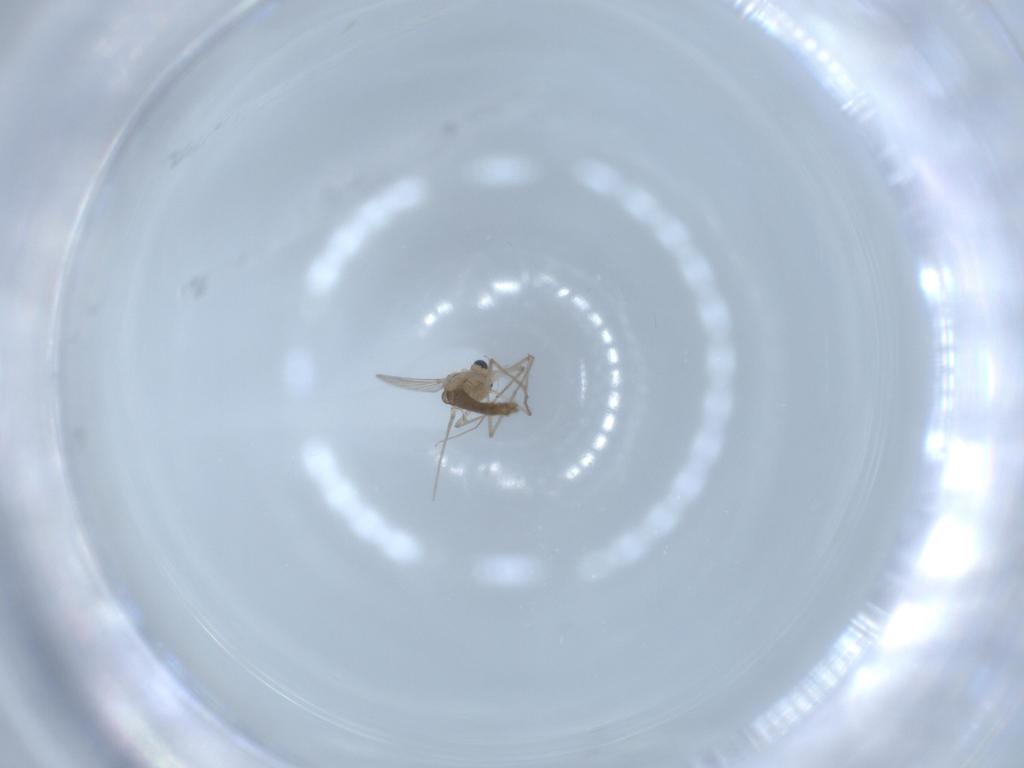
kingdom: Animalia
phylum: Arthropoda
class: Insecta
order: Diptera
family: Chironomidae
